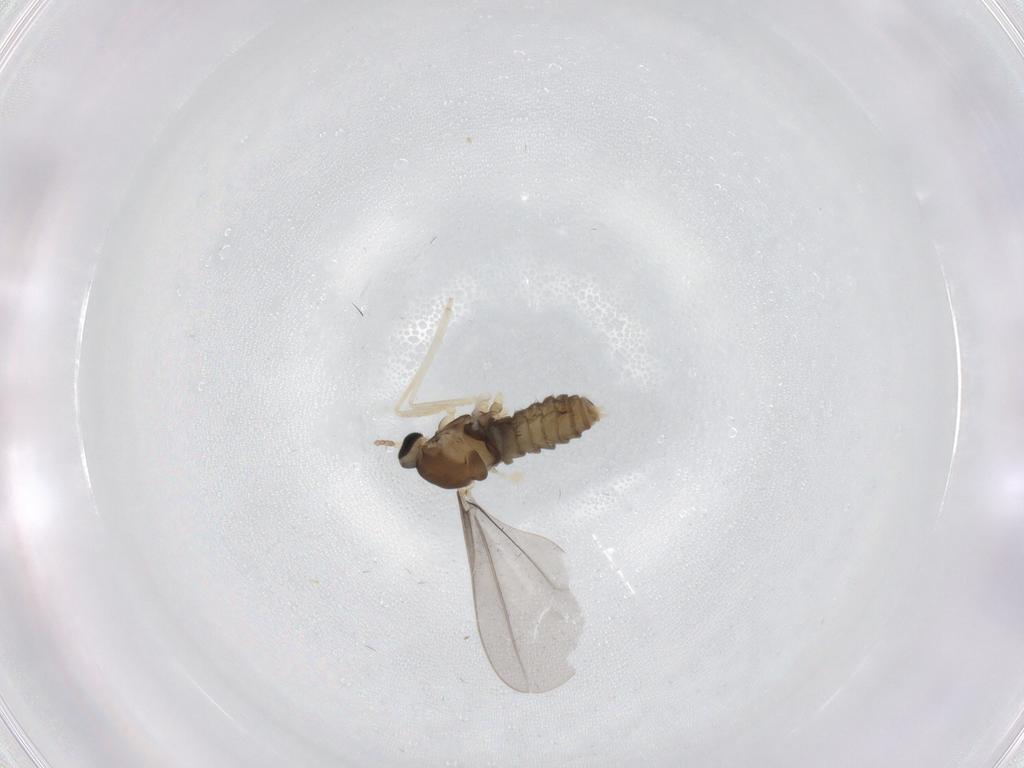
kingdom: Animalia
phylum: Arthropoda
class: Insecta
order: Diptera
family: Cecidomyiidae
